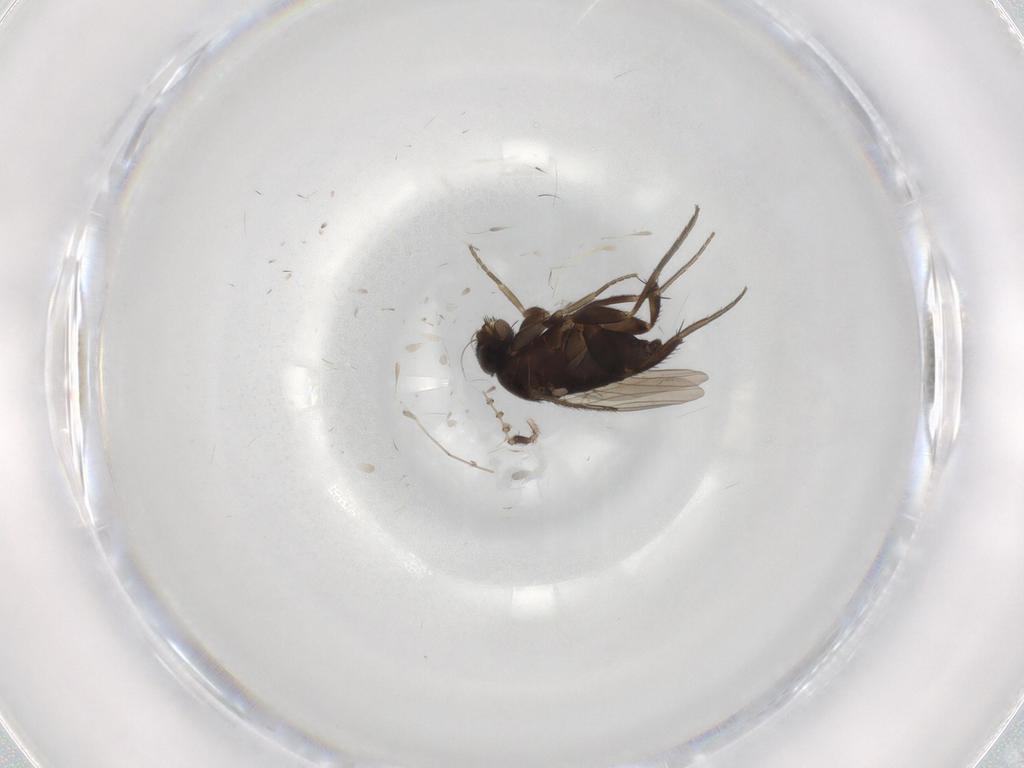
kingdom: Animalia
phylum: Arthropoda
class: Insecta
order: Diptera
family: Phoridae
